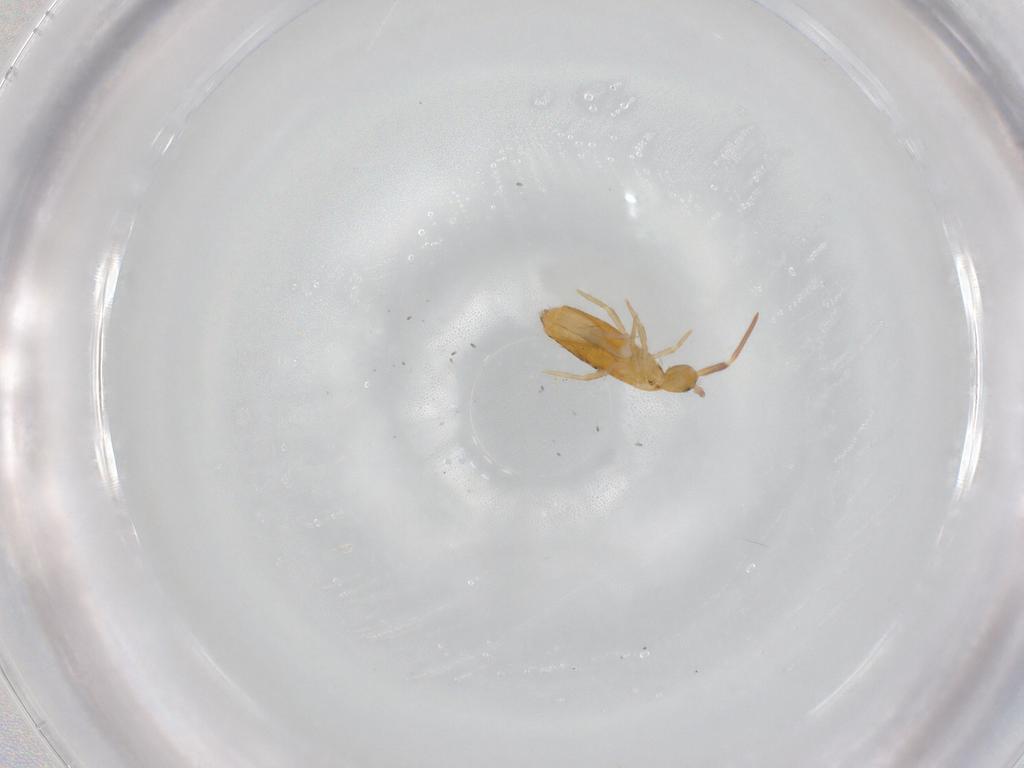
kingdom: Animalia
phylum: Arthropoda
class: Collembola
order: Entomobryomorpha
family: Entomobryidae
